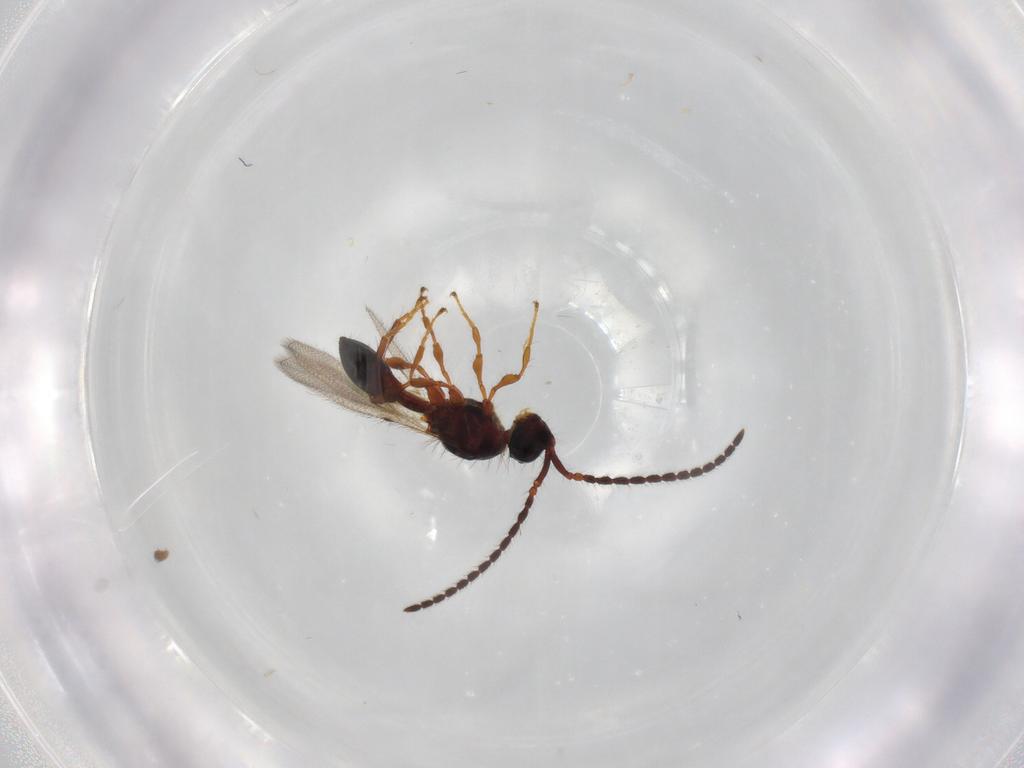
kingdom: Animalia
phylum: Arthropoda
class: Insecta
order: Hymenoptera
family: Diapriidae
